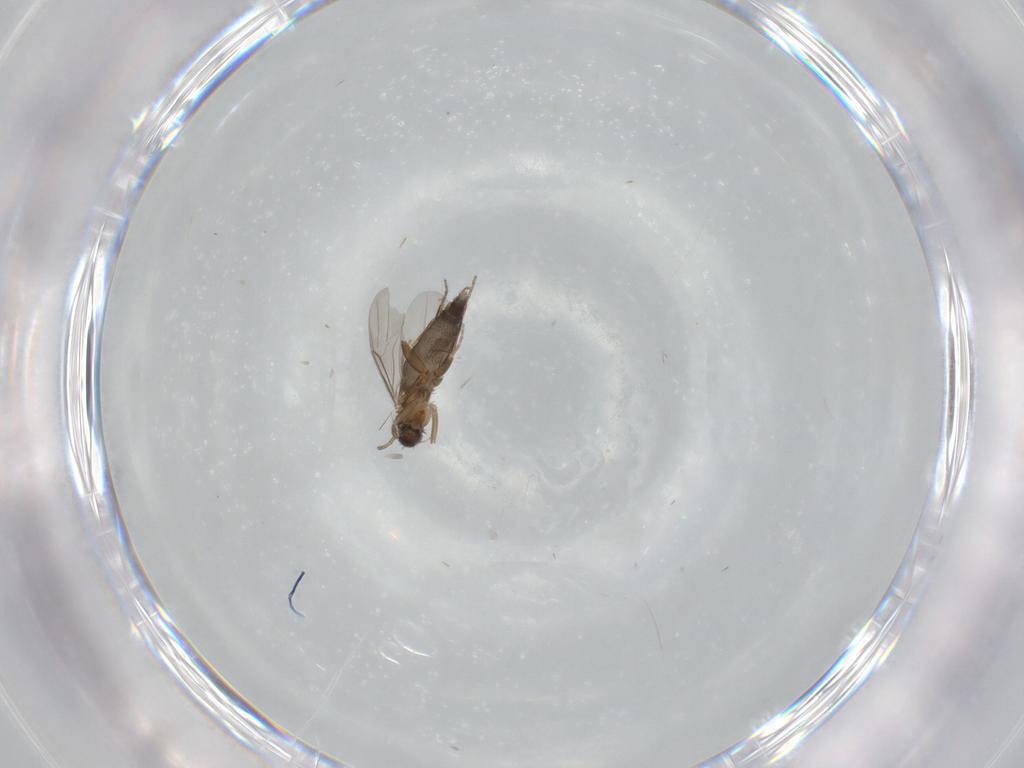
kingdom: Animalia
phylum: Arthropoda
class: Insecta
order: Diptera
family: Phoridae
